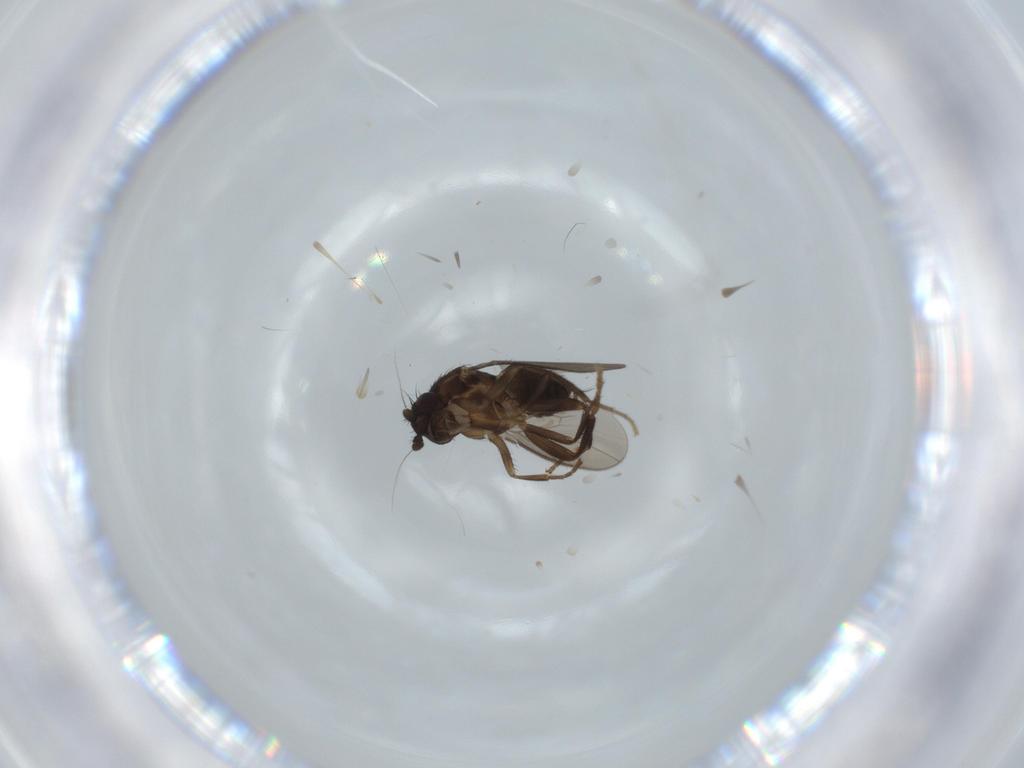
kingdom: Animalia
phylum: Arthropoda
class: Insecta
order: Diptera
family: Sphaeroceridae
